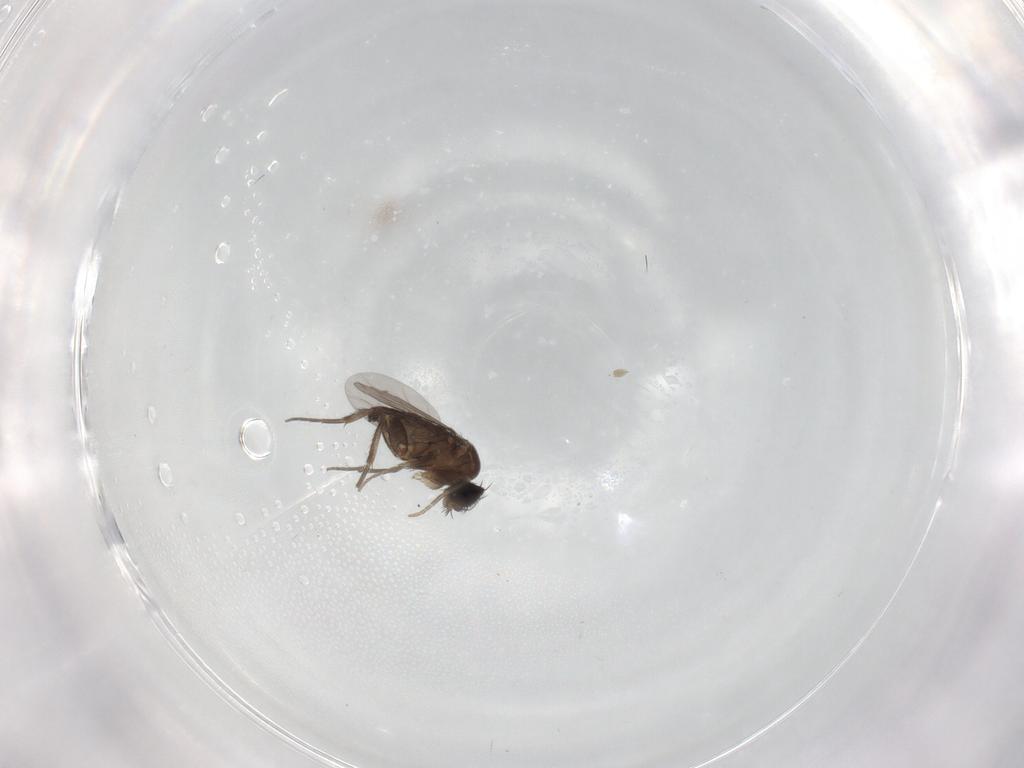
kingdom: Animalia
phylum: Arthropoda
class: Insecta
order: Diptera
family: Phoridae
